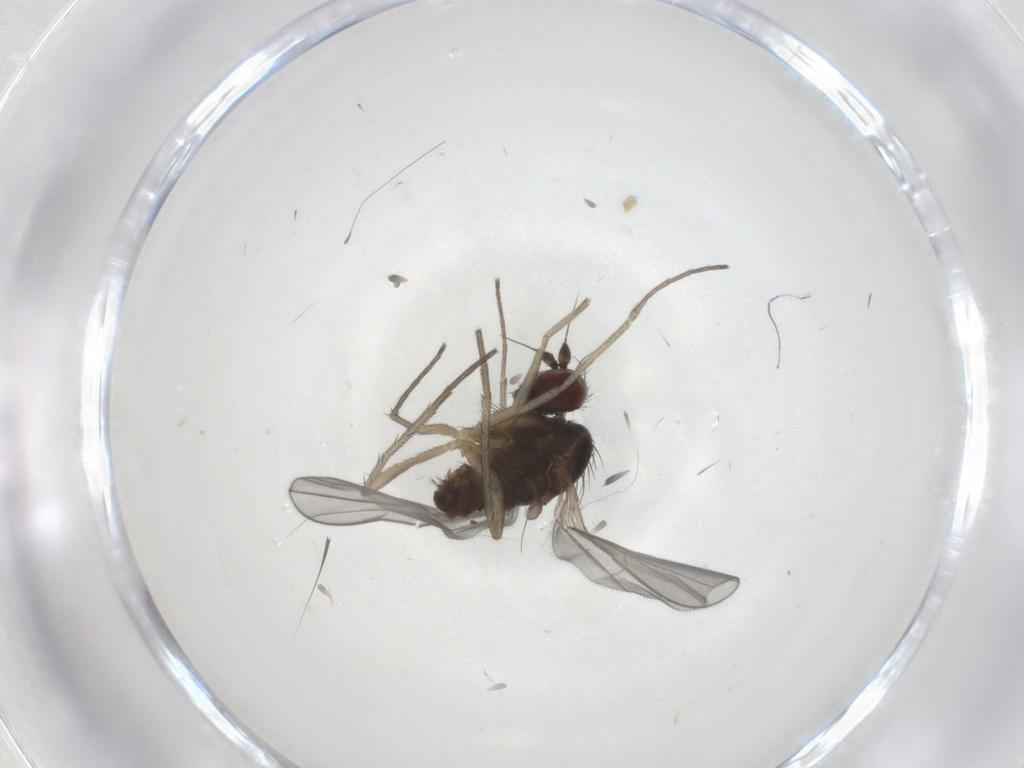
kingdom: Animalia
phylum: Arthropoda
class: Insecta
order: Diptera
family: Dolichopodidae
